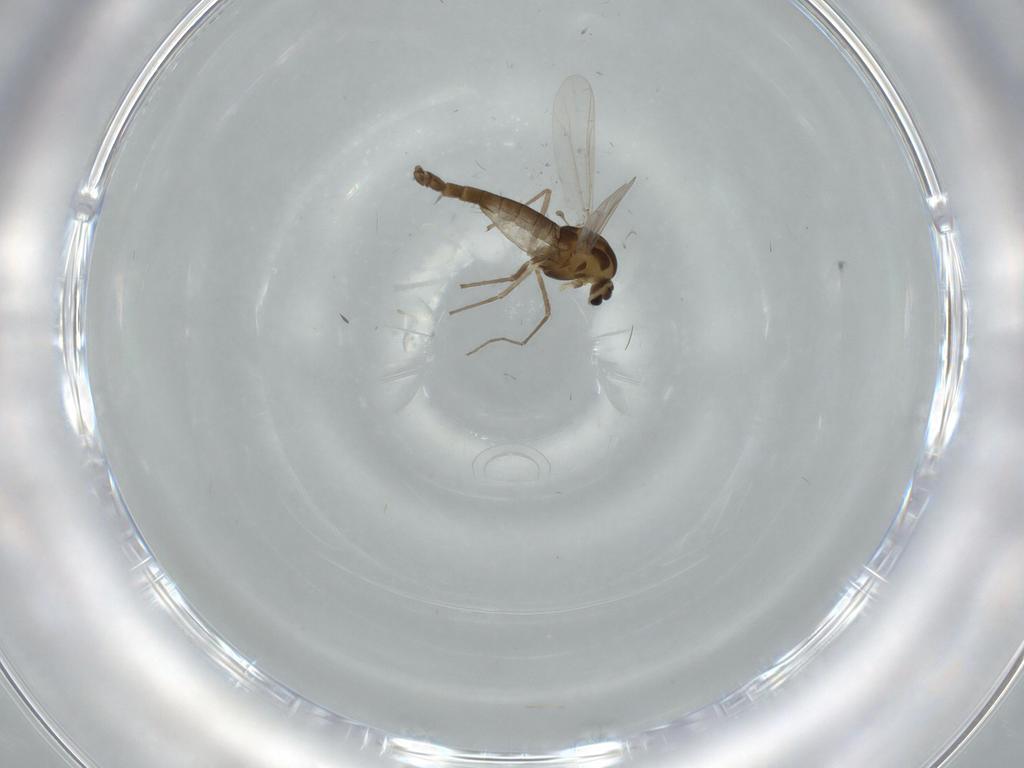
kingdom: Animalia
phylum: Arthropoda
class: Insecta
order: Diptera
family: Chironomidae
